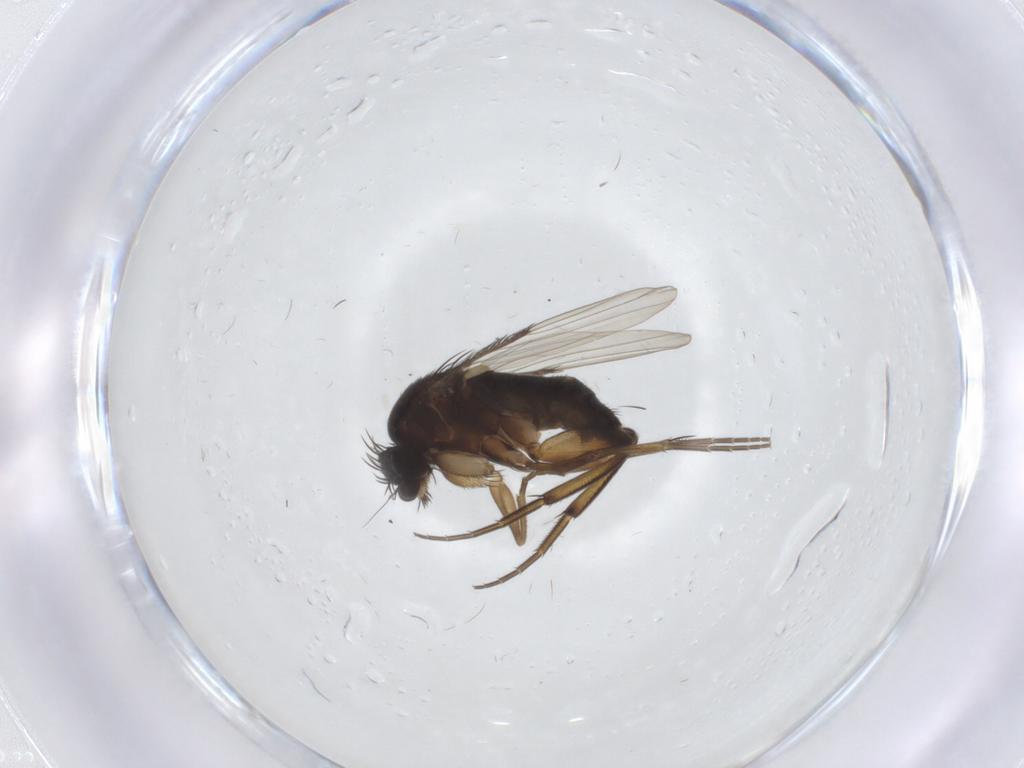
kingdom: Animalia
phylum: Arthropoda
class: Insecta
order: Diptera
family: Phoridae
